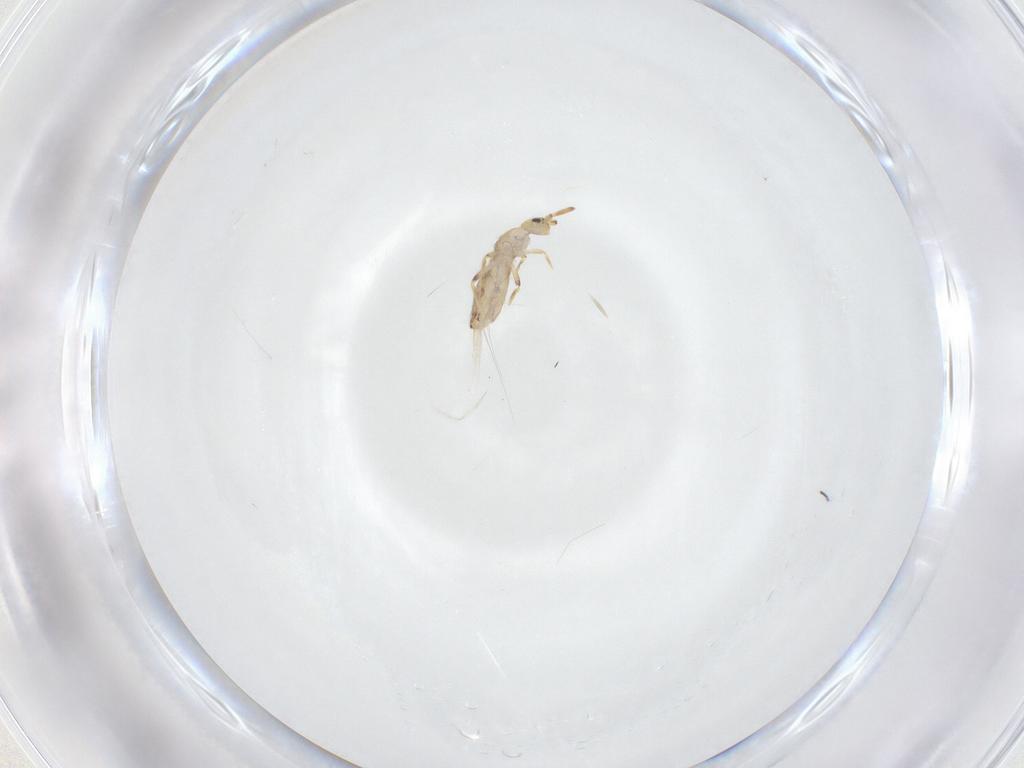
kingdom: Animalia
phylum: Arthropoda
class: Collembola
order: Entomobryomorpha
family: Entomobryidae
